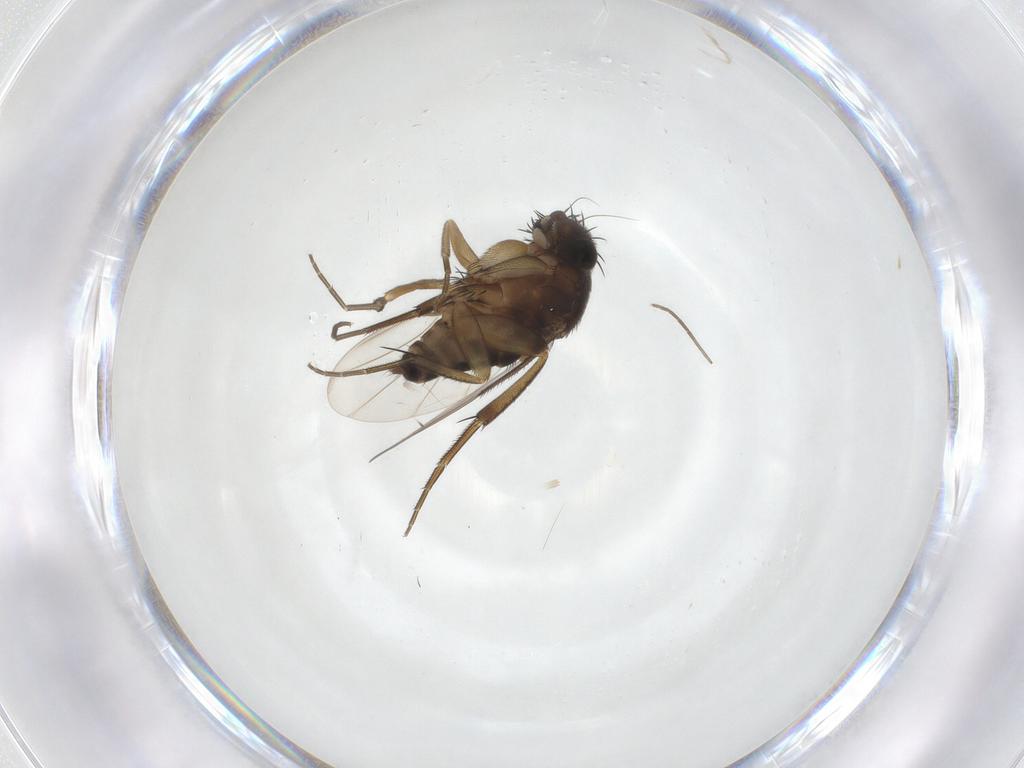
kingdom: Animalia
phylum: Arthropoda
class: Insecta
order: Diptera
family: Phoridae
